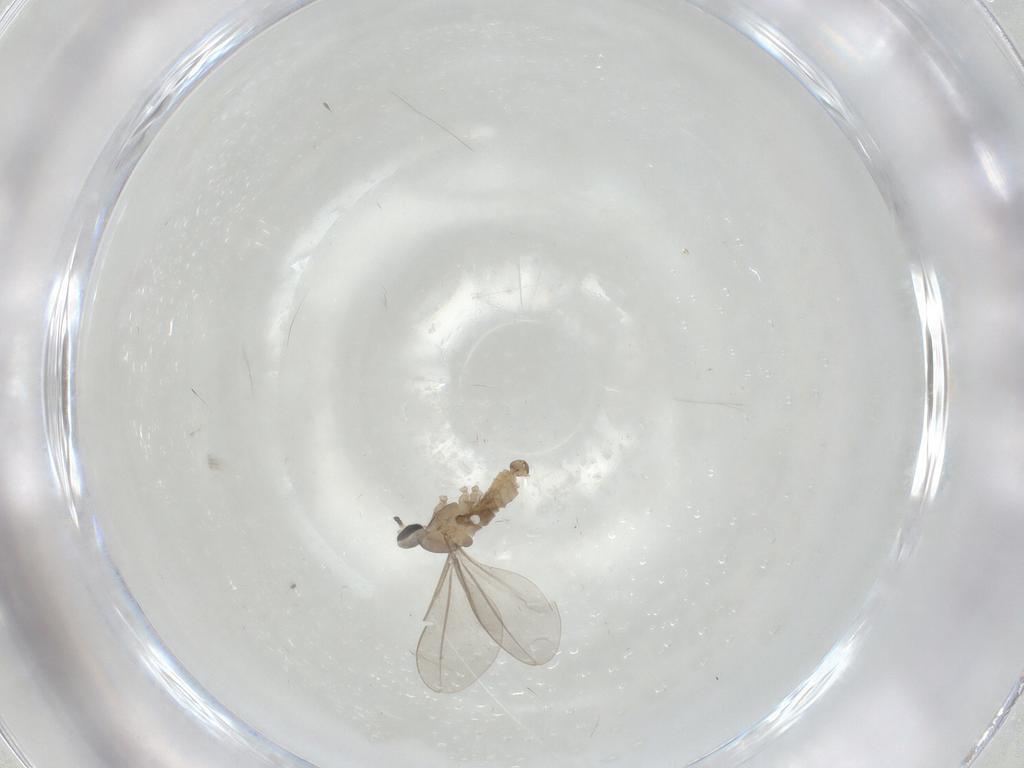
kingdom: Animalia
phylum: Arthropoda
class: Insecta
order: Diptera
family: Cecidomyiidae
